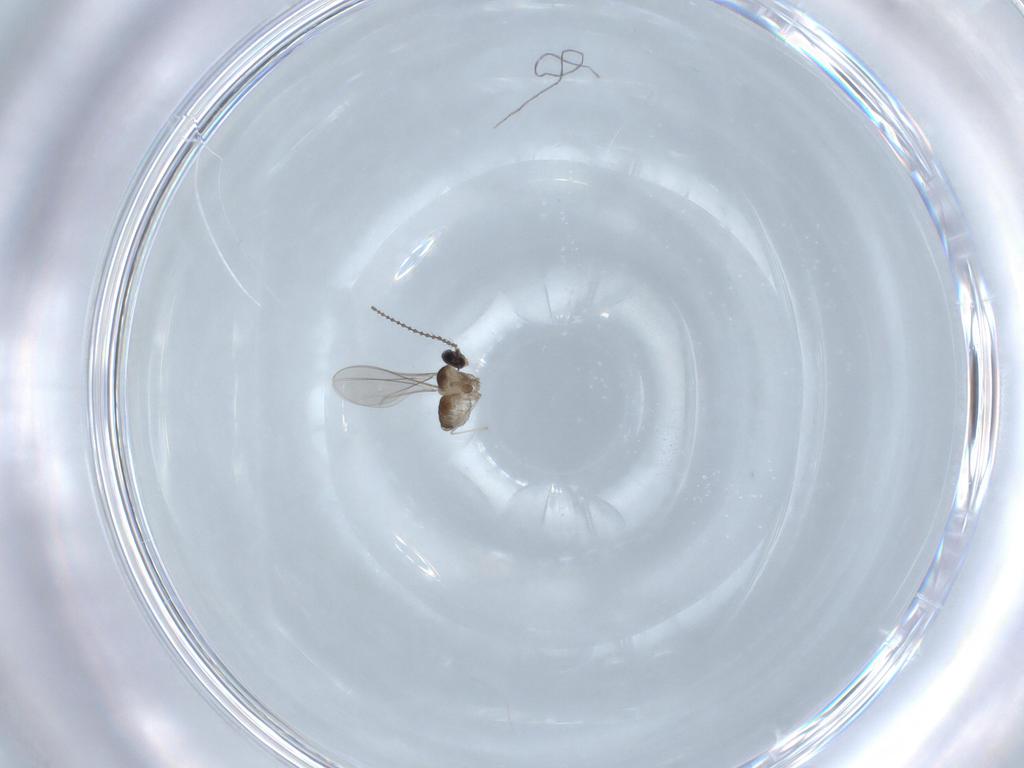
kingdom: Animalia
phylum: Arthropoda
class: Insecta
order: Diptera
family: Cecidomyiidae
